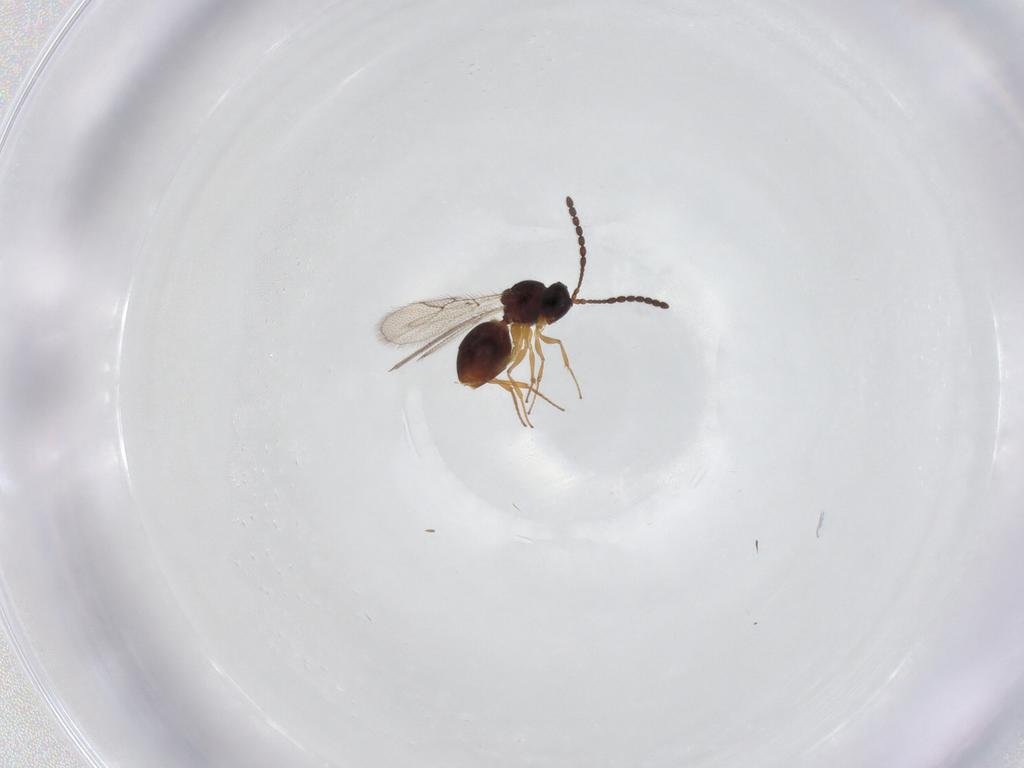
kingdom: Animalia
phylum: Arthropoda
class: Insecta
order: Hymenoptera
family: Figitidae
